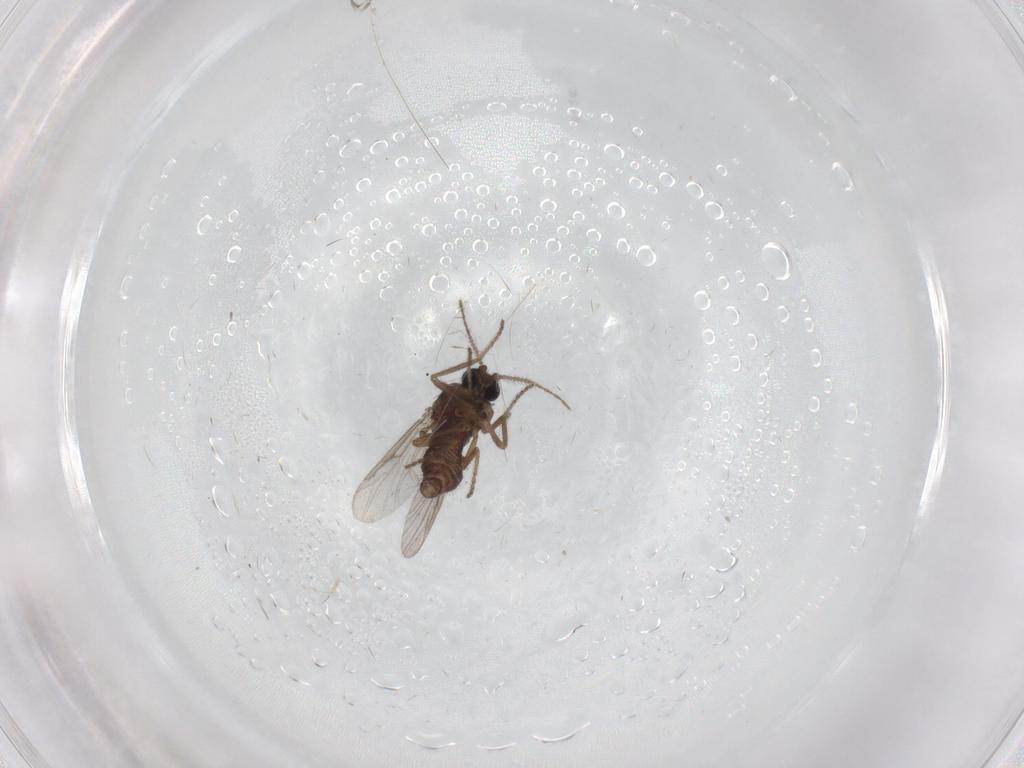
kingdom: Animalia
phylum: Arthropoda
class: Insecta
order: Diptera
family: Ceratopogonidae
